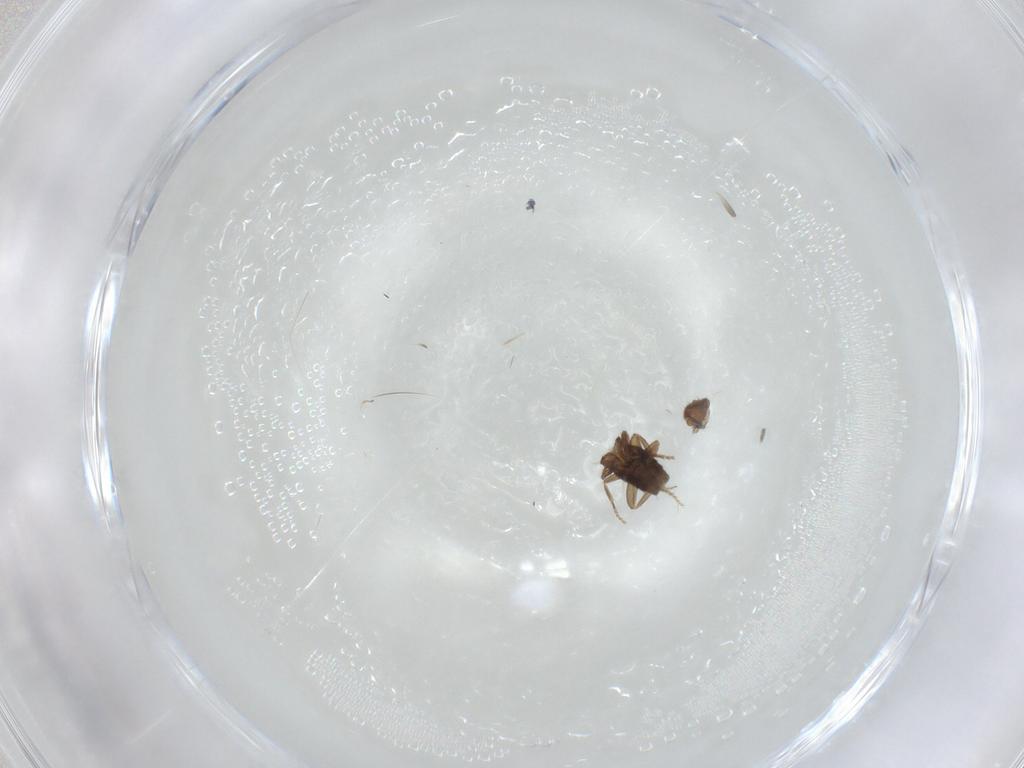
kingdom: Animalia
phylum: Arthropoda
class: Insecta
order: Diptera
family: Phoridae
